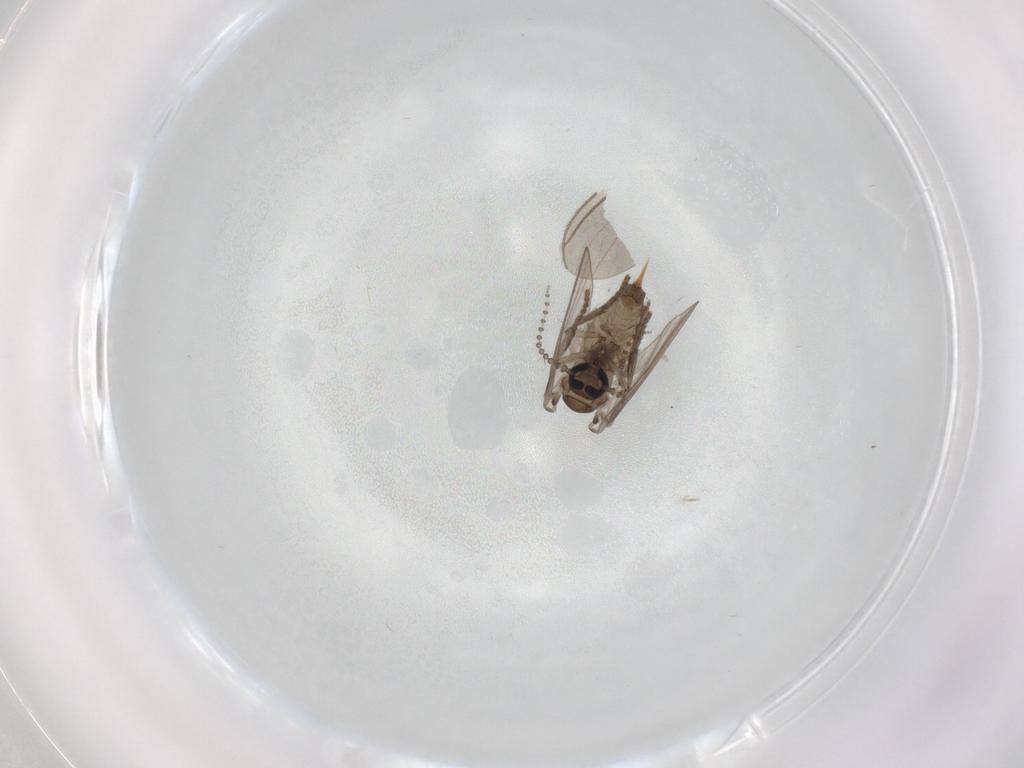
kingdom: Animalia
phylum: Arthropoda
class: Insecta
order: Diptera
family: Psychodidae
